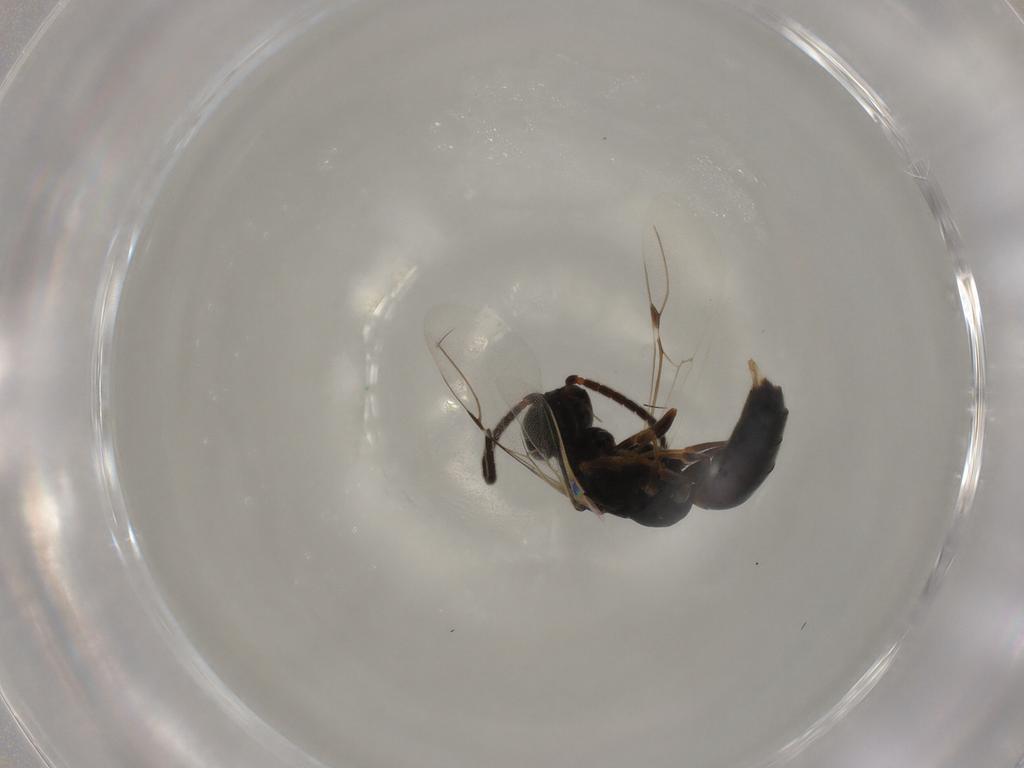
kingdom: Animalia
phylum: Arthropoda
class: Insecta
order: Hymenoptera
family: Bethylidae
